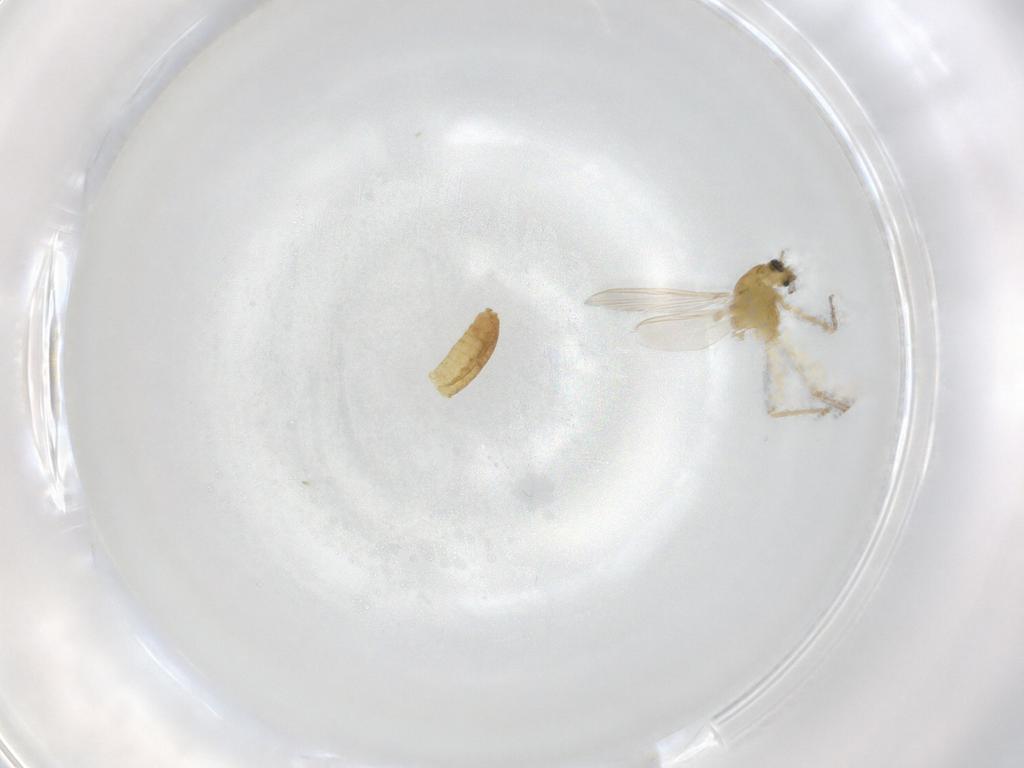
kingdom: Animalia
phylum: Arthropoda
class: Insecta
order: Diptera
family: Chironomidae
